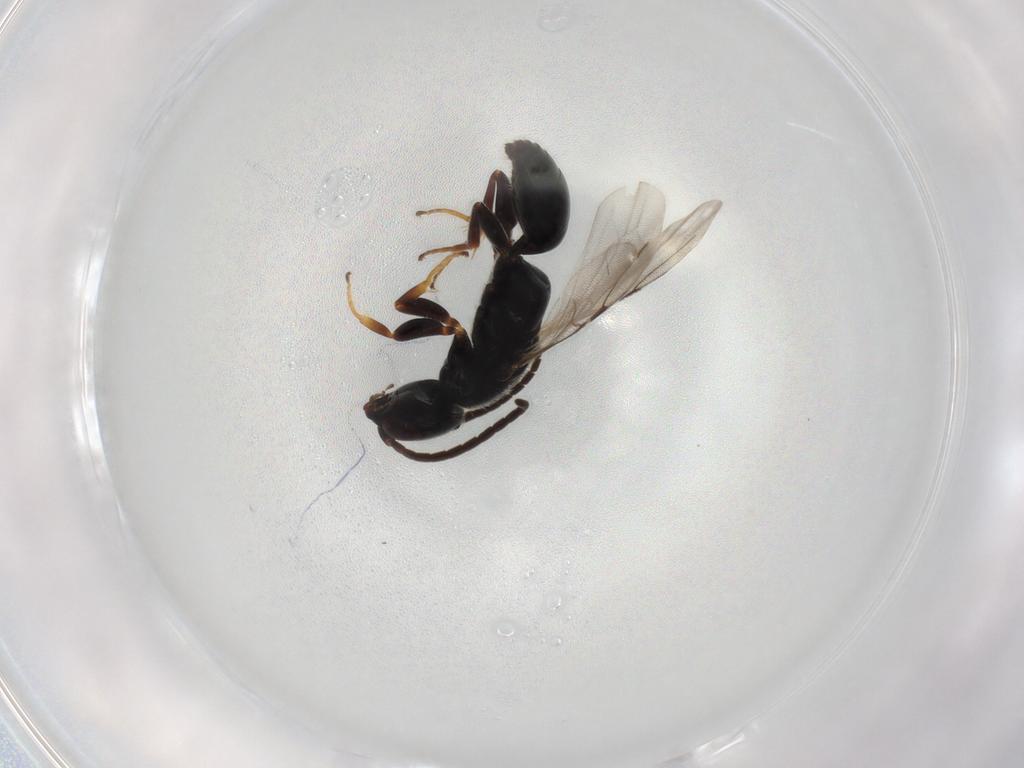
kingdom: Animalia
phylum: Arthropoda
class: Insecta
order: Hymenoptera
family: Bethylidae
